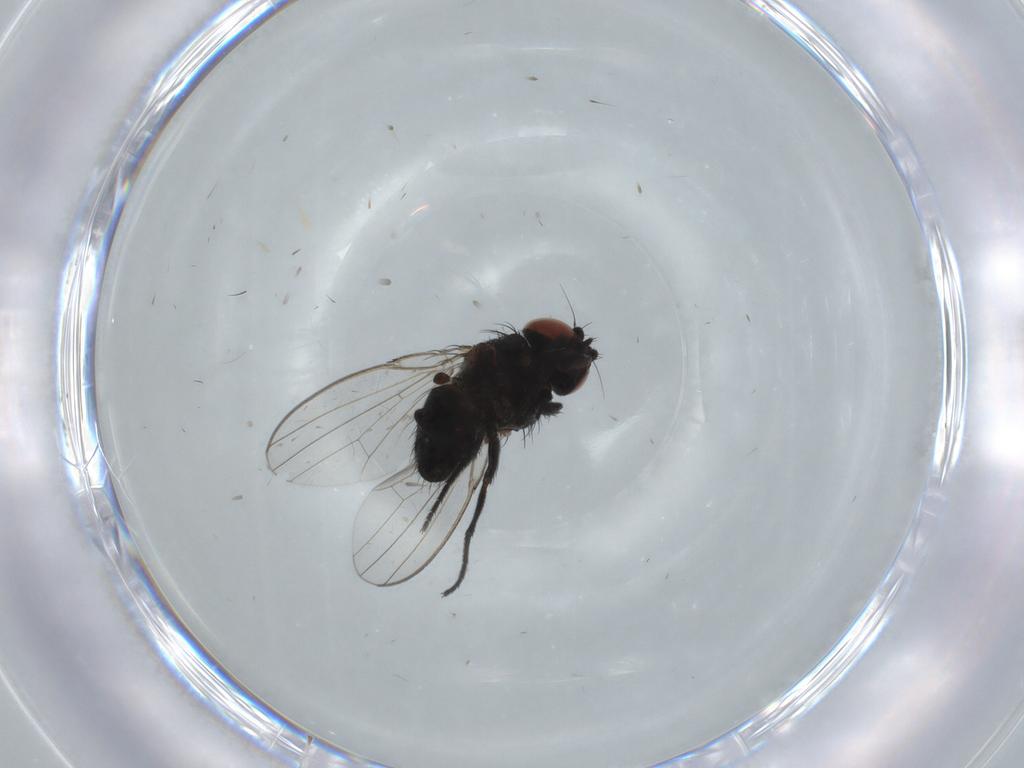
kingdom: Animalia
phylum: Arthropoda
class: Insecta
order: Diptera
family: Milichiidae
